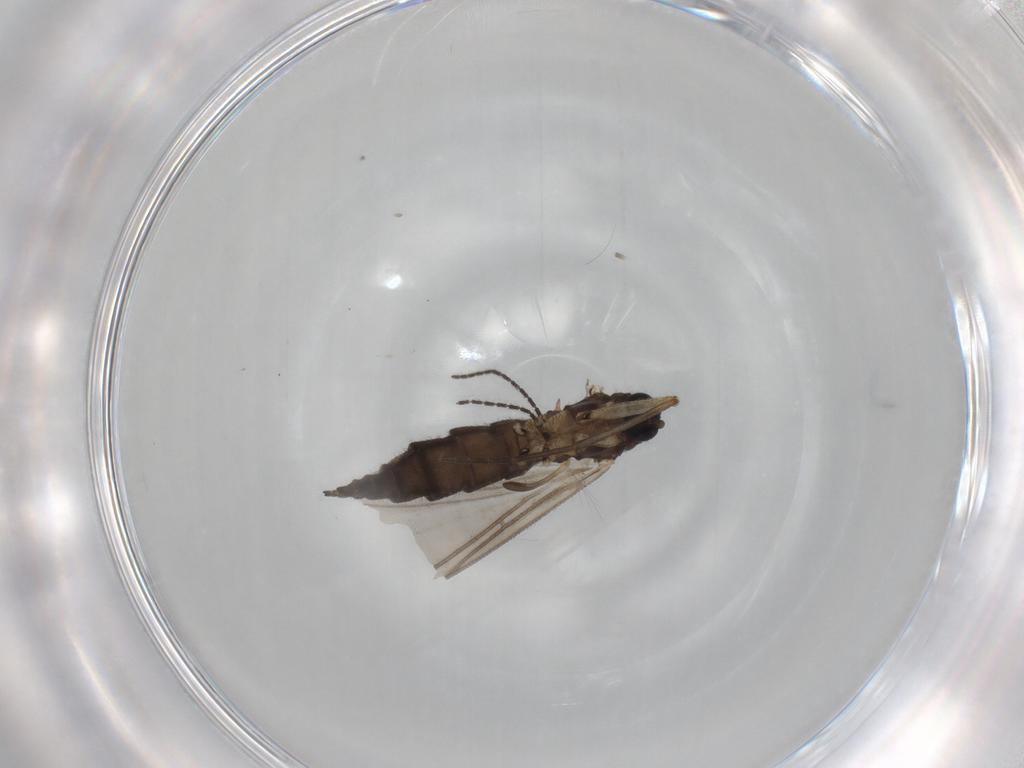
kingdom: Animalia
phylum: Arthropoda
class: Insecta
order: Diptera
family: Sciaridae
